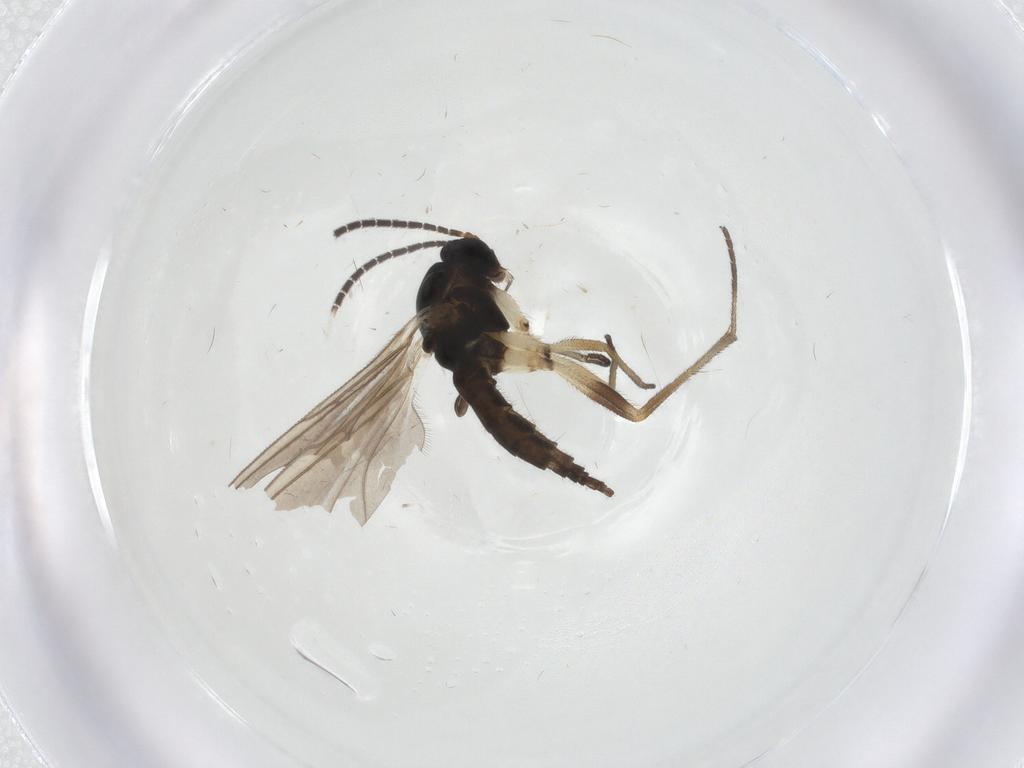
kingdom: Animalia
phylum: Arthropoda
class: Insecta
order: Diptera
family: Sciaridae
